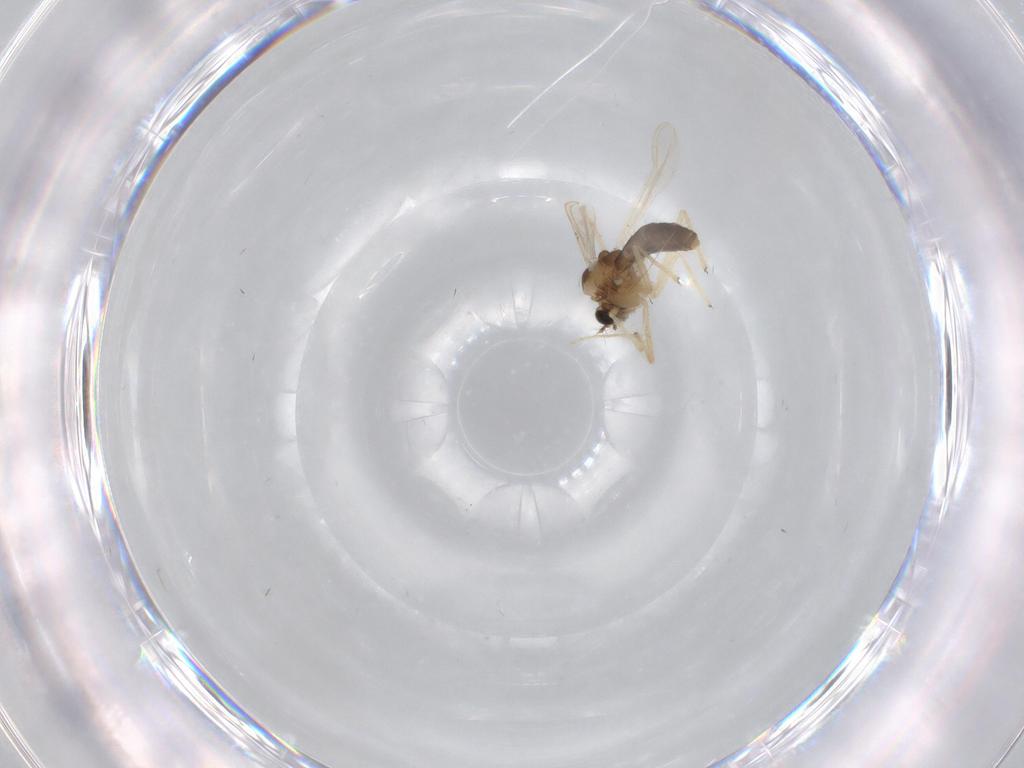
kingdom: Animalia
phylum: Arthropoda
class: Insecta
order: Diptera
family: Chironomidae
